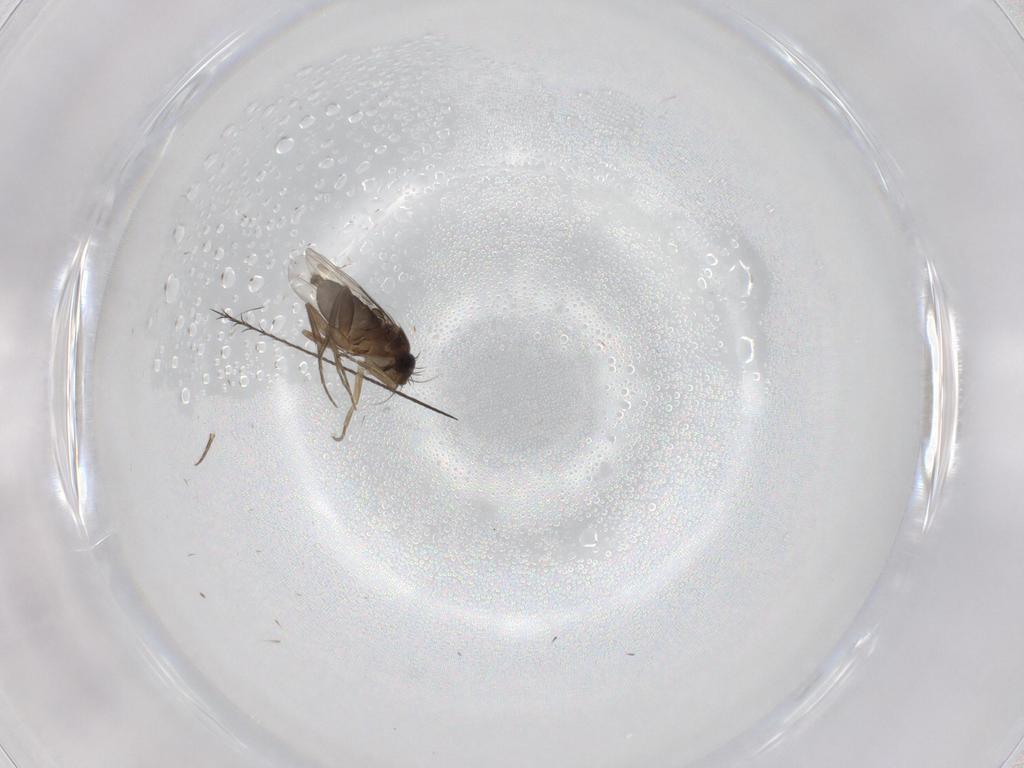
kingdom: Animalia
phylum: Arthropoda
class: Insecta
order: Diptera
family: Phoridae
